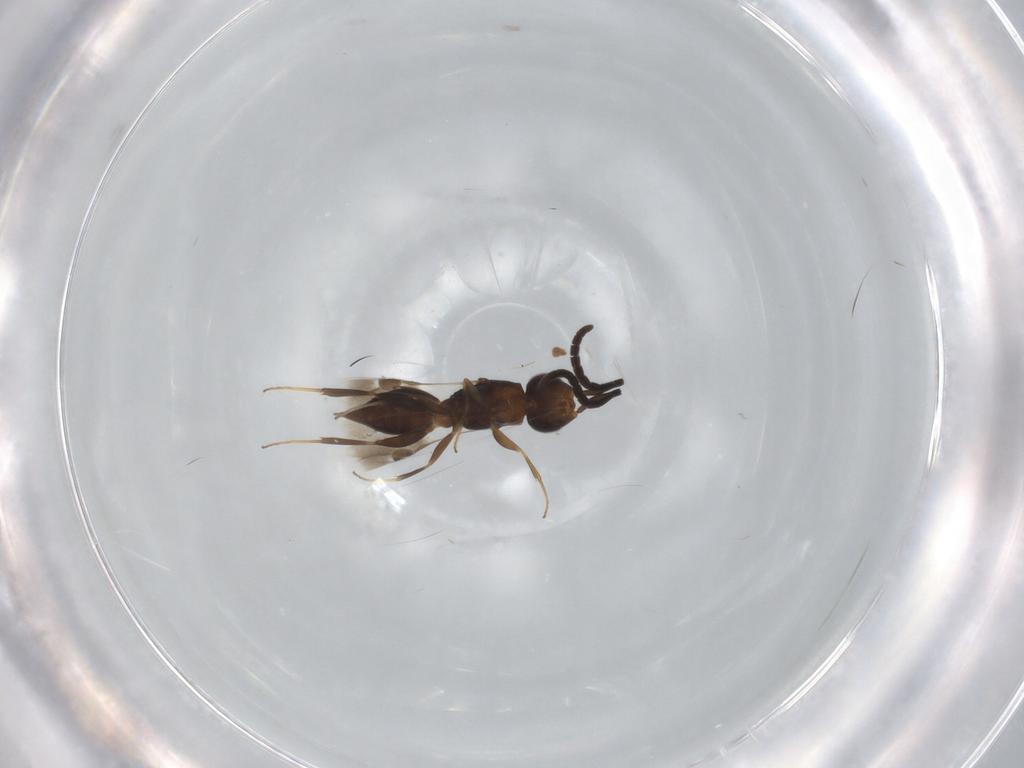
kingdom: Animalia
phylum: Arthropoda
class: Insecta
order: Hymenoptera
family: Megaspilidae
